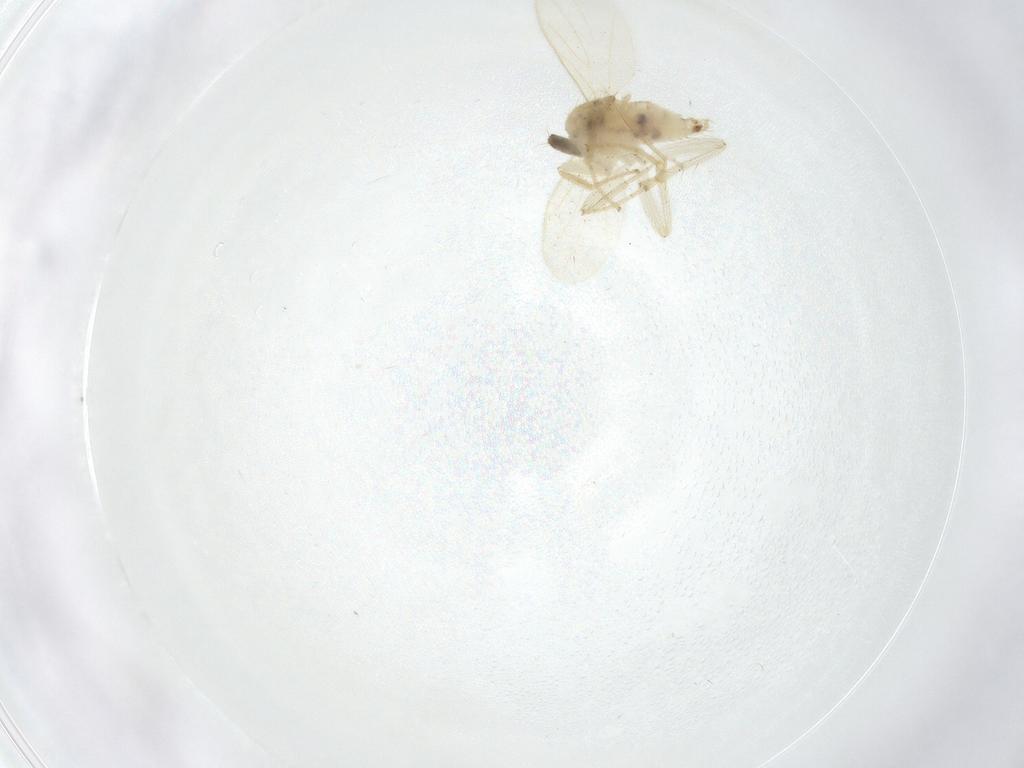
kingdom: Animalia
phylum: Arthropoda
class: Insecta
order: Diptera
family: Hybotidae
